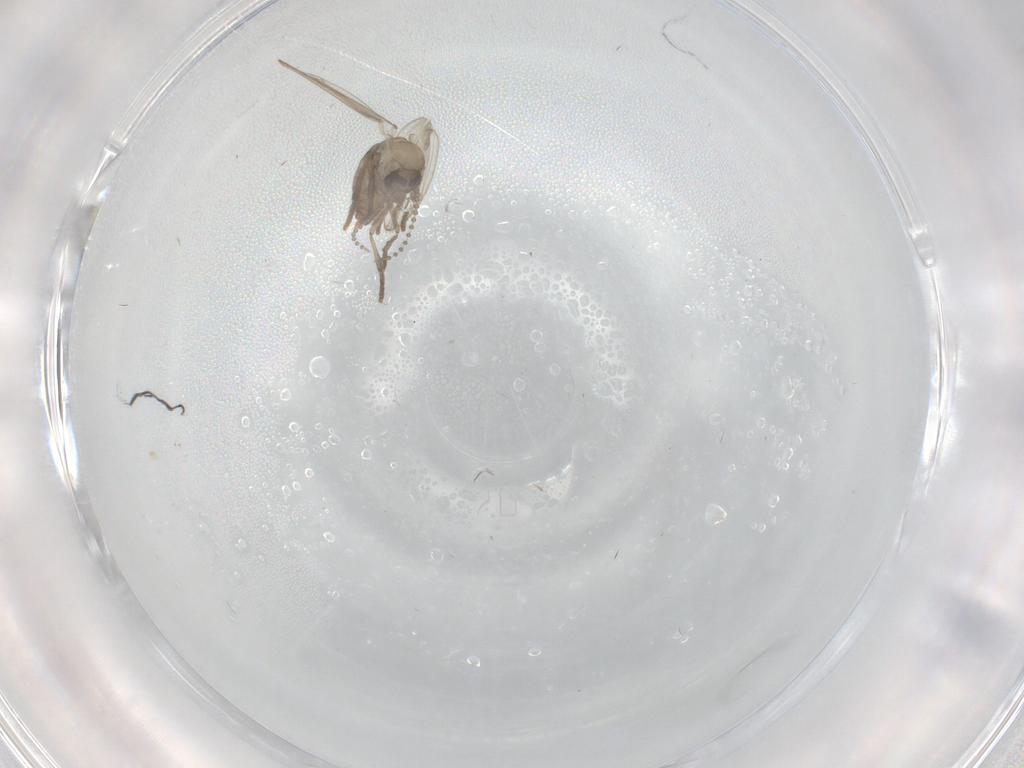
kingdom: Animalia
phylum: Arthropoda
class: Insecta
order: Diptera
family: Psychodidae
